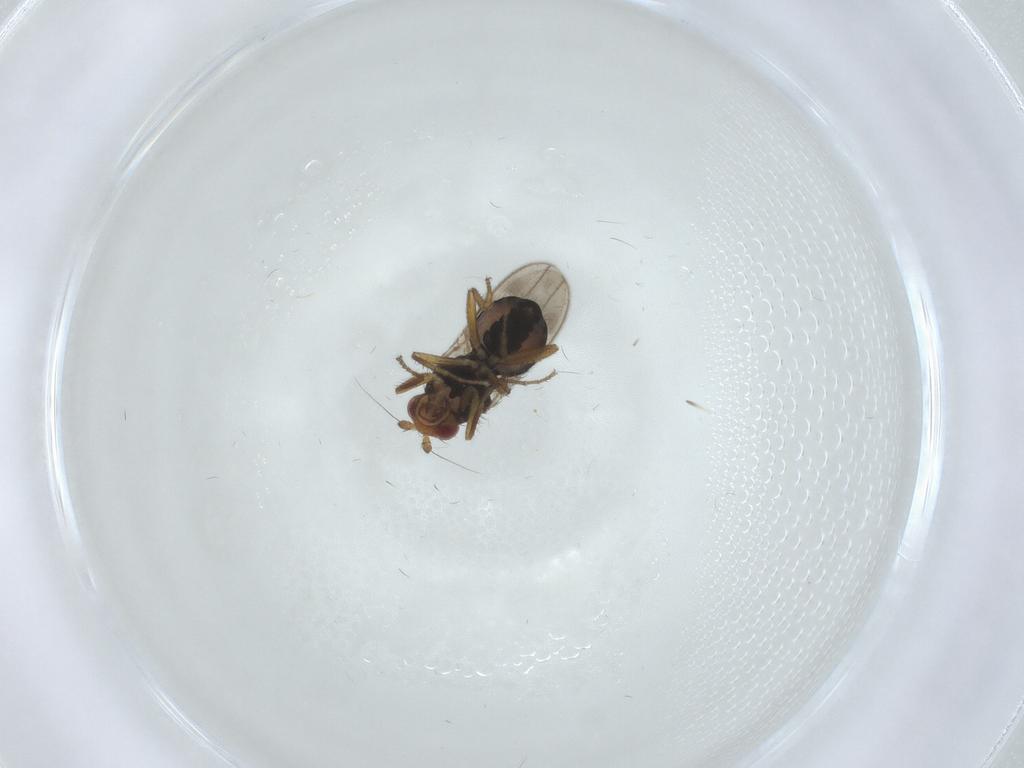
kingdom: Animalia
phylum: Arthropoda
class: Insecta
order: Diptera
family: Sphaeroceridae
